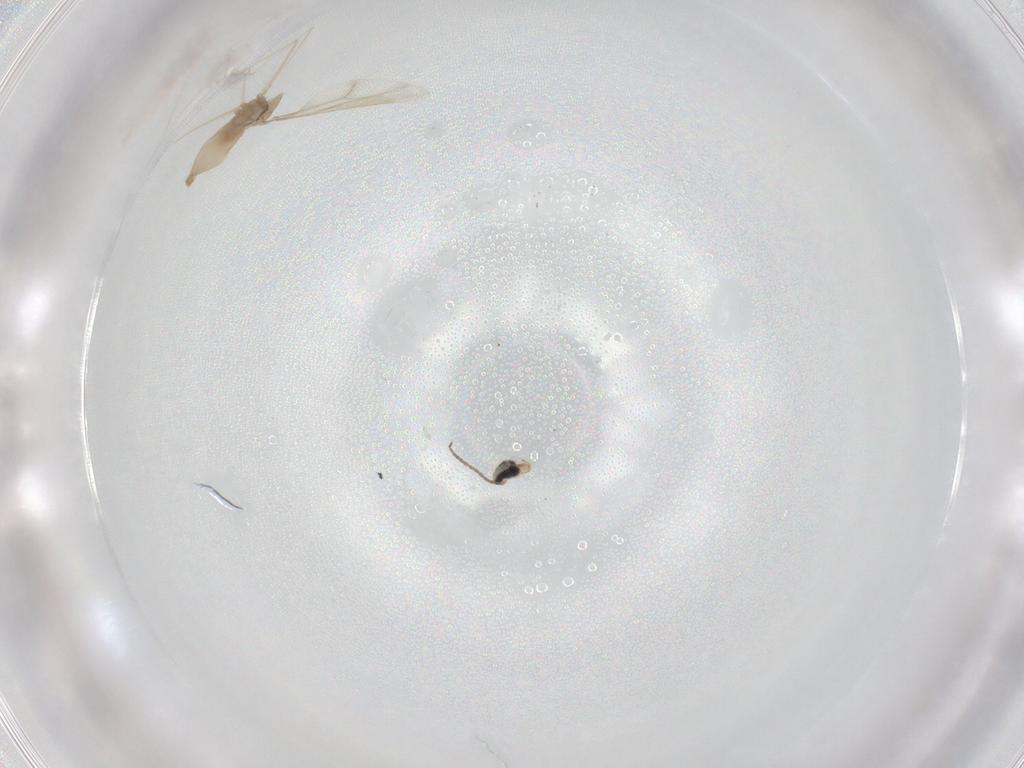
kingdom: Animalia
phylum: Arthropoda
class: Insecta
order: Diptera
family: Cecidomyiidae
